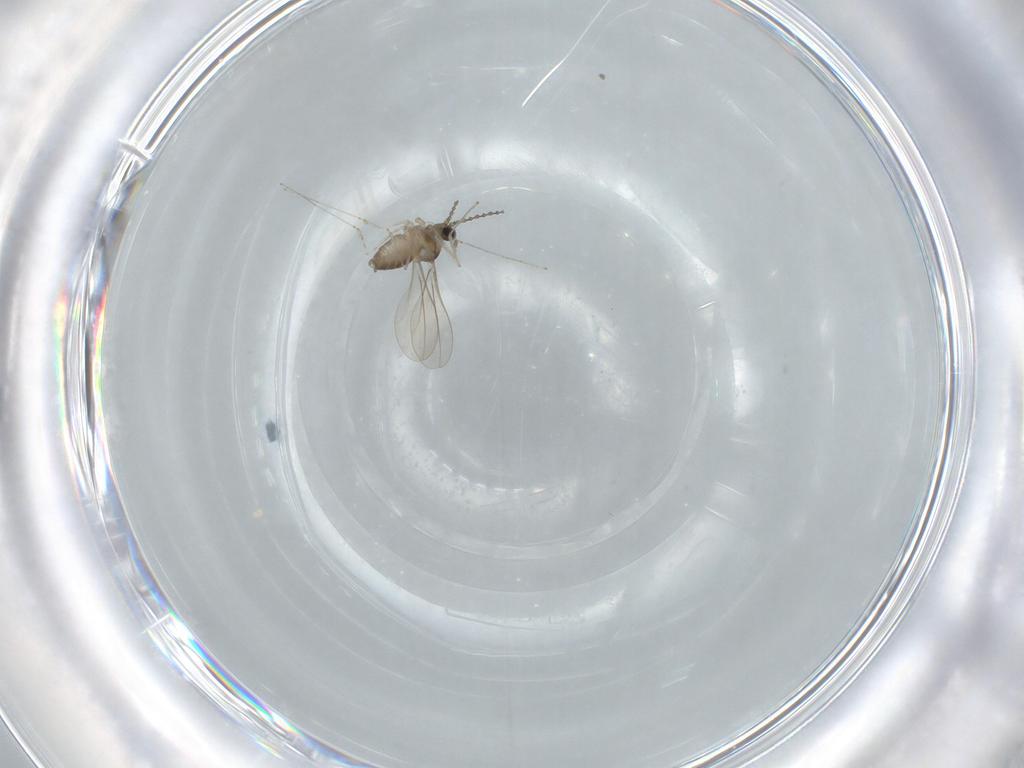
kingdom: Animalia
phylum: Arthropoda
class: Insecta
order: Diptera
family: Cecidomyiidae
